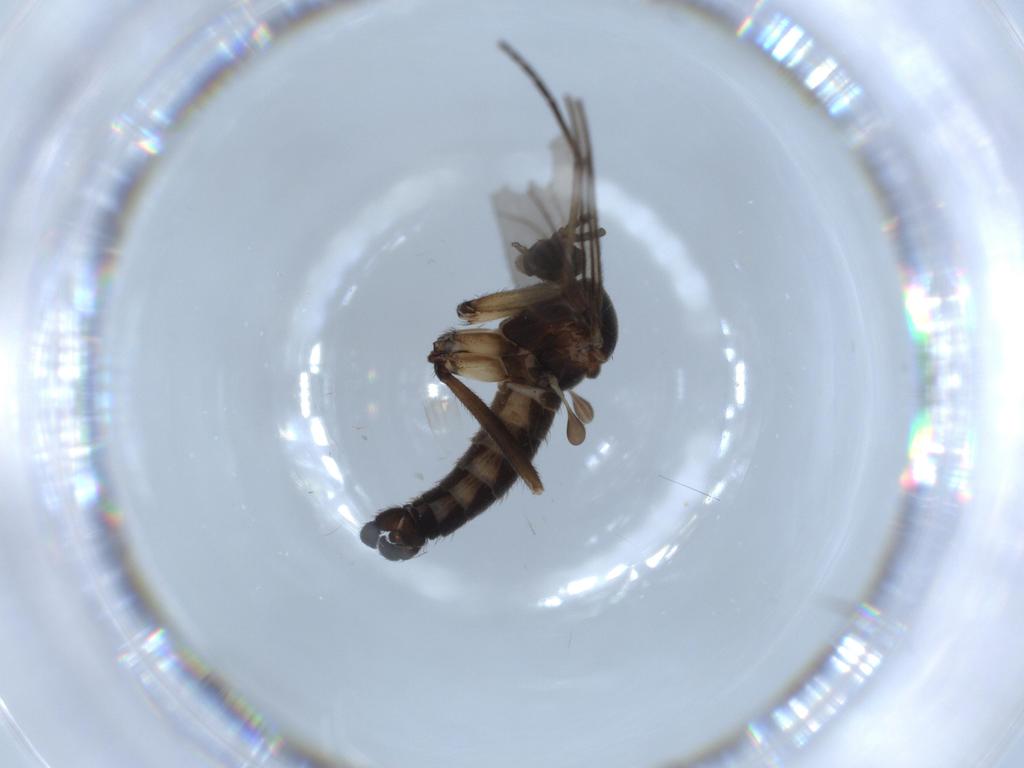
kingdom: Animalia
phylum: Arthropoda
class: Insecta
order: Diptera
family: Sciaridae
